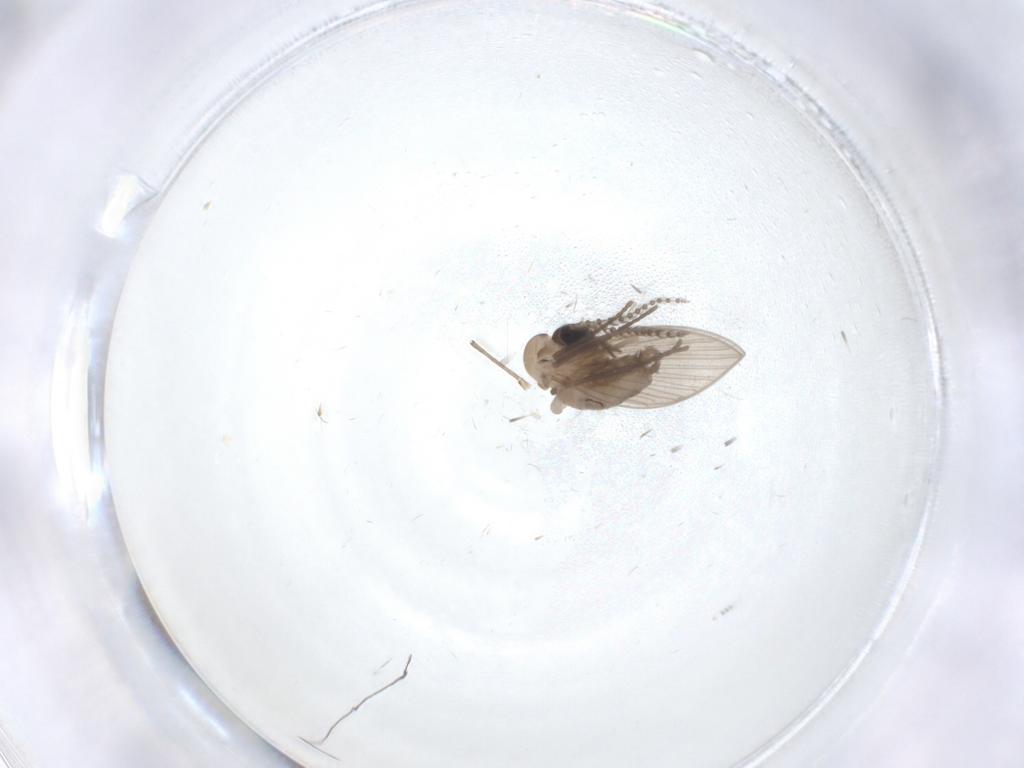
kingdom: Animalia
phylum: Arthropoda
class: Insecta
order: Diptera
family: Psychodidae
